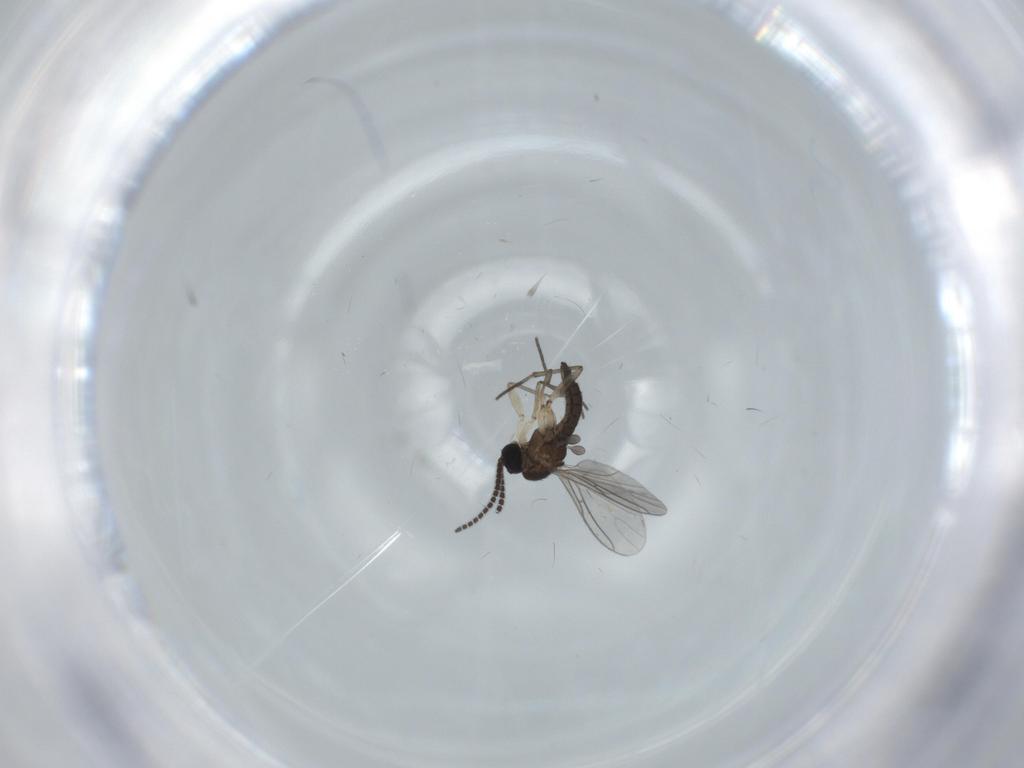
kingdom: Animalia
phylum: Arthropoda
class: Insecta
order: Diptera
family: Sciaridae
